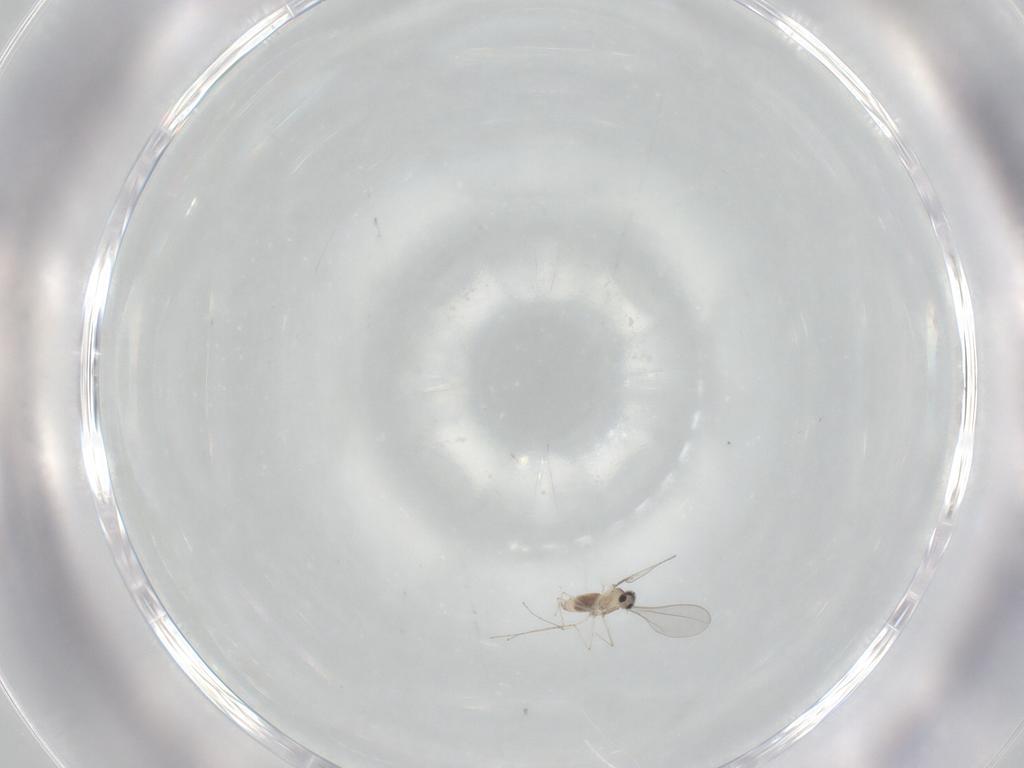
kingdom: Animalia
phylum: Arthropoda
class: Insecta
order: Diptera
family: Cecidomyiidae
